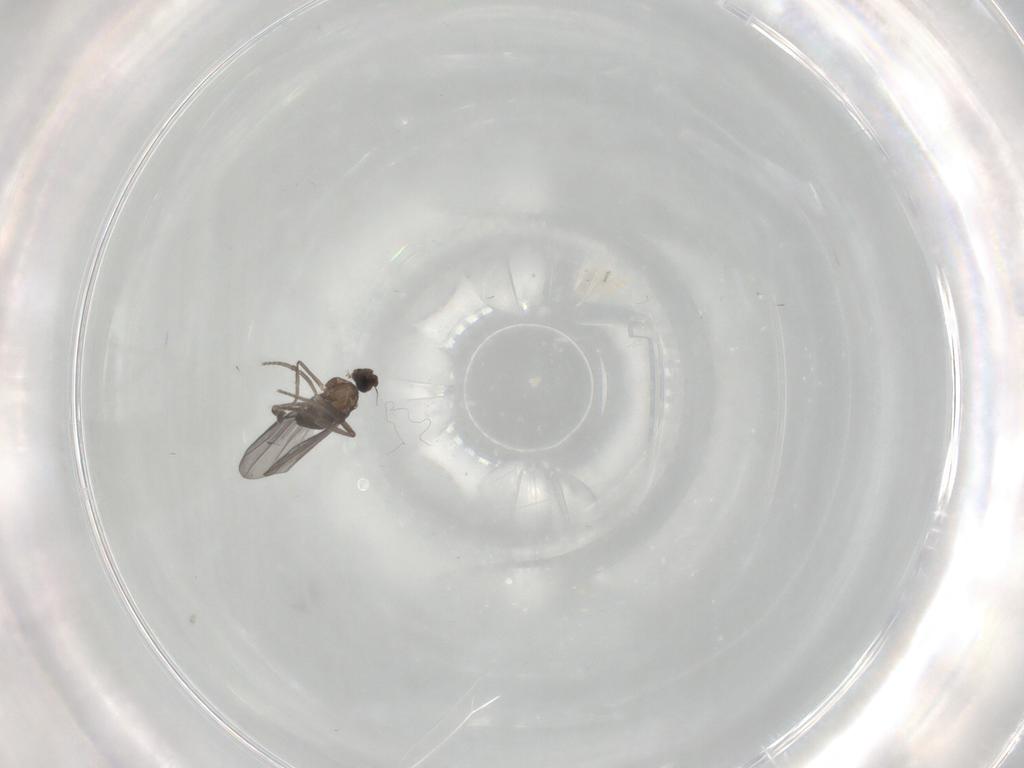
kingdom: Animalia
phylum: Arthropoda
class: Insecta
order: Diptera
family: Phoridae
